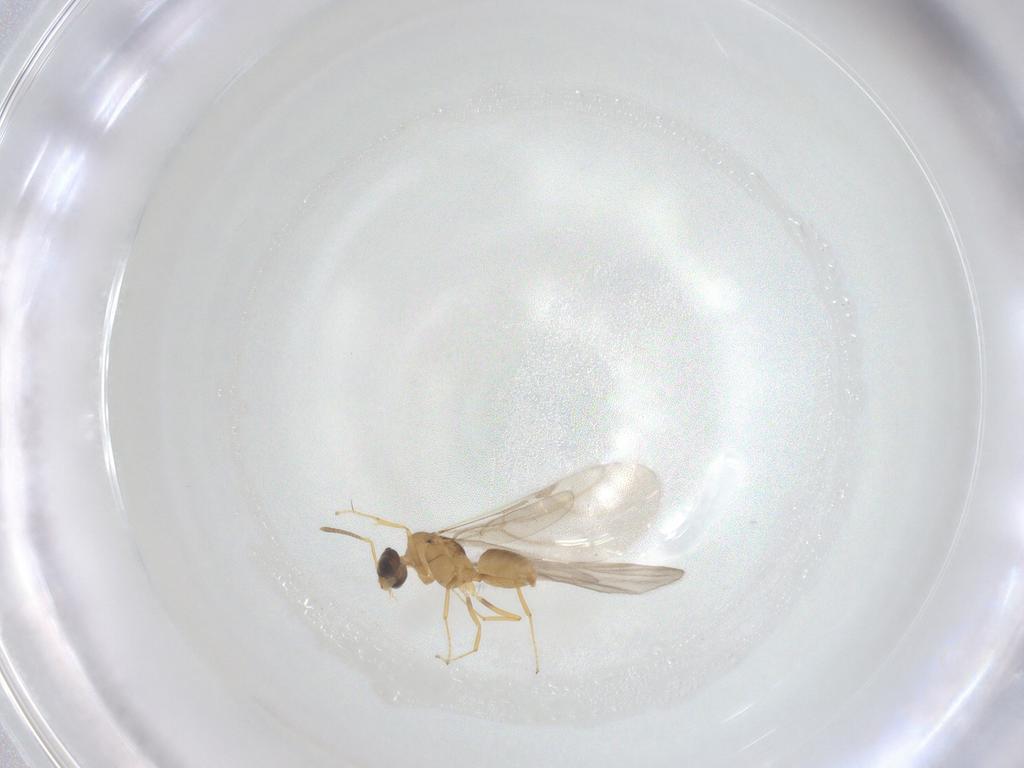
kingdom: Animalia
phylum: Arthropoda
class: Insecta
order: Hymenoptera
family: Formicidae
